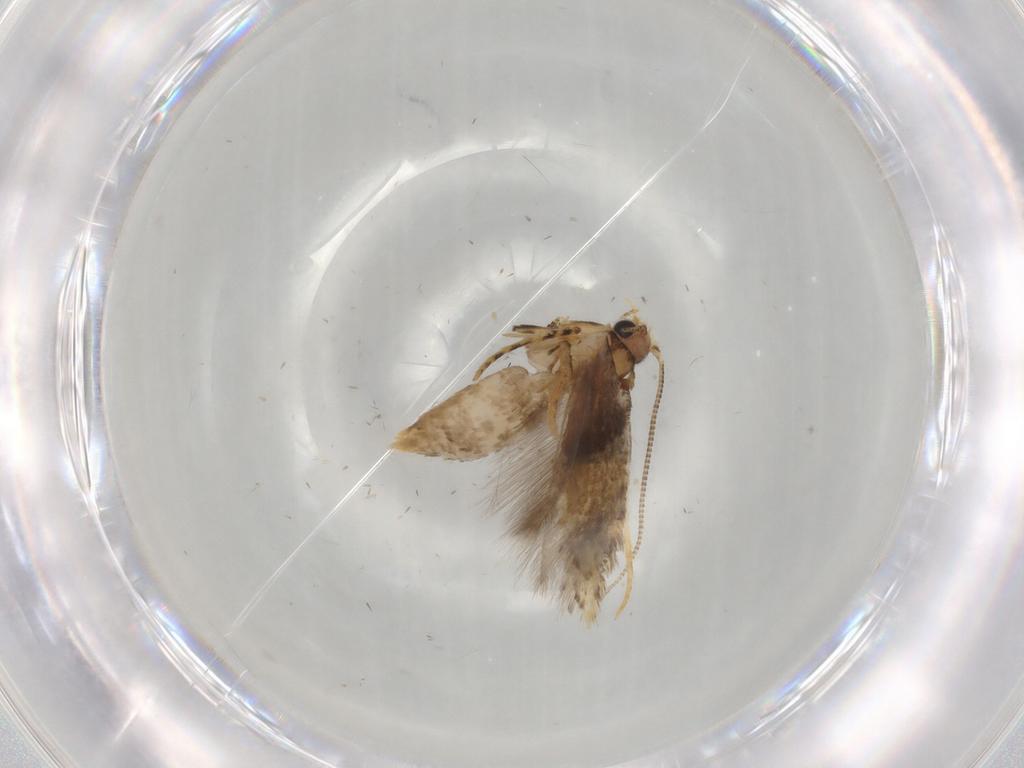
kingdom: Animalia
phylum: Arthropoda
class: Insecta
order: Lepidoptera
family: Tineidae
